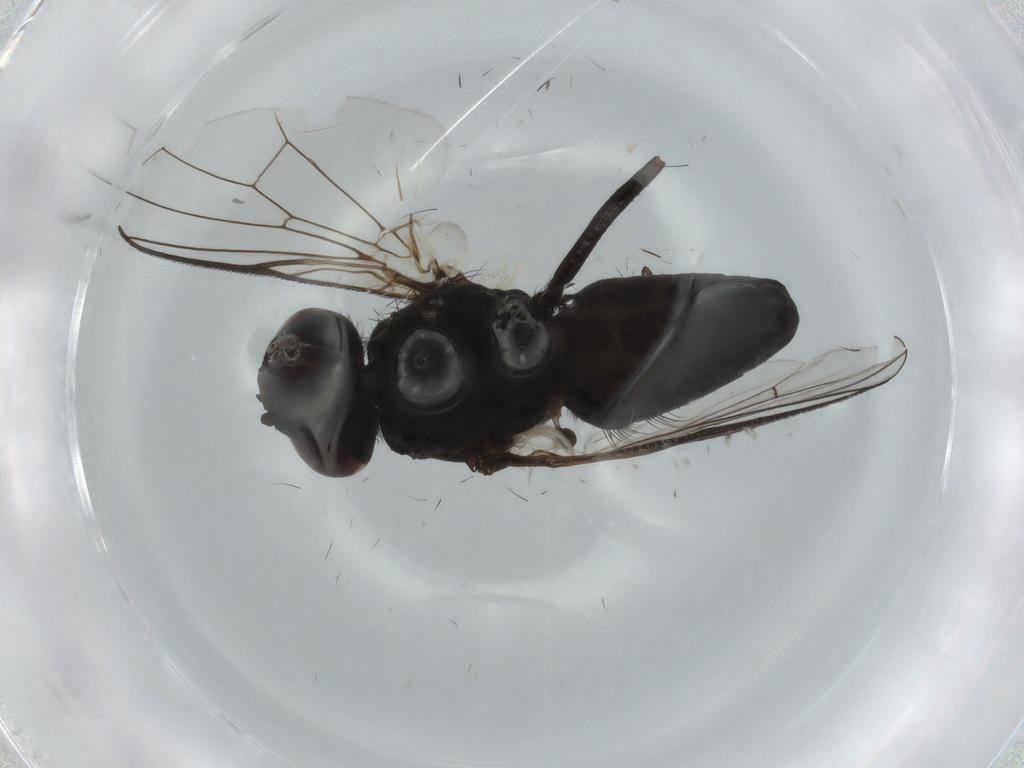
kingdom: Animalia
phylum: Arthropoda
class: Insecta
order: Diptera
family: Muscidae
